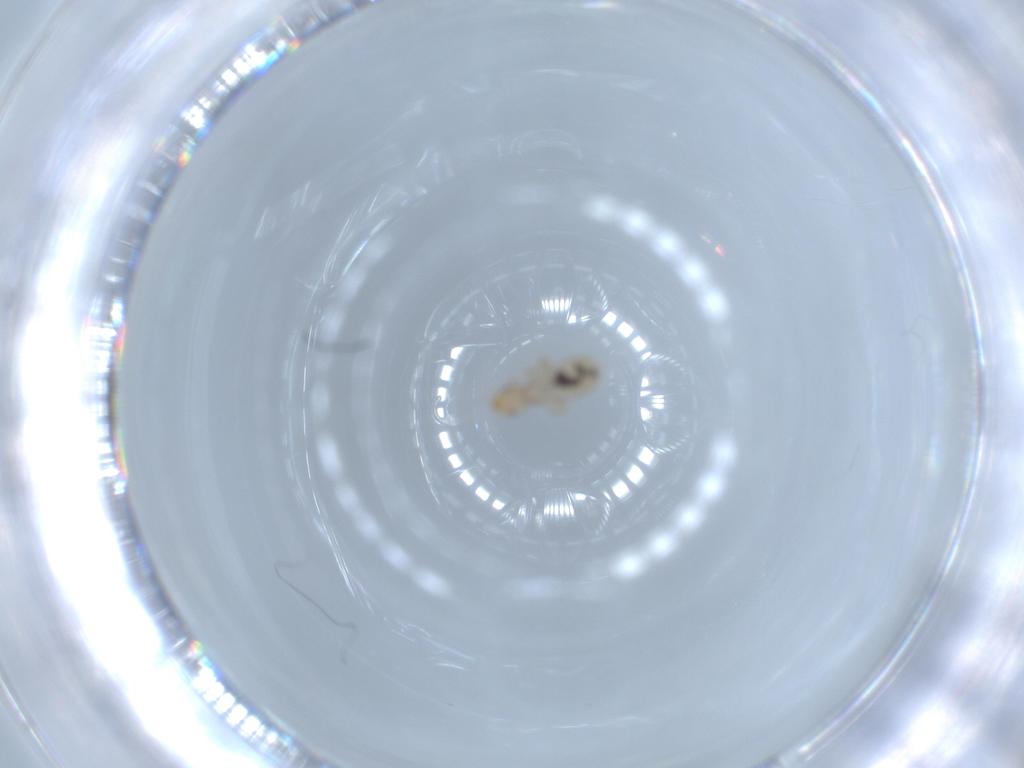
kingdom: Animalia
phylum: Arthropoda
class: Insecta
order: Psocodea
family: Liposcelididae
